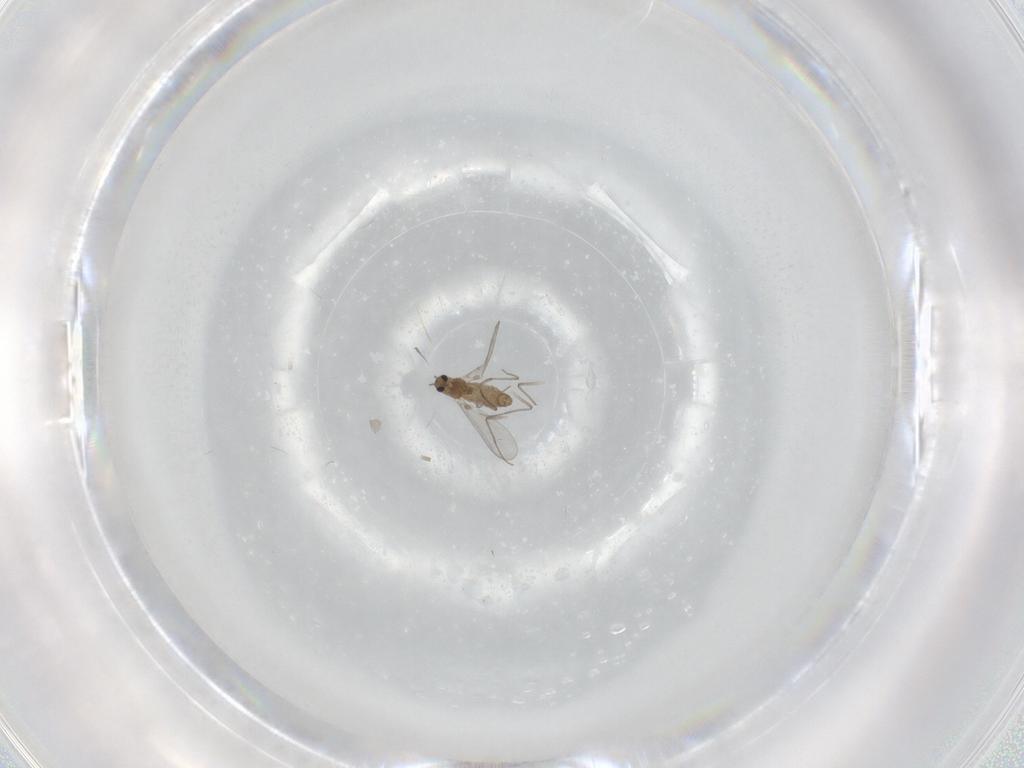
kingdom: Animalia
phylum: Arthropoda
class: Insecta
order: Diptera
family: Chironomidae
